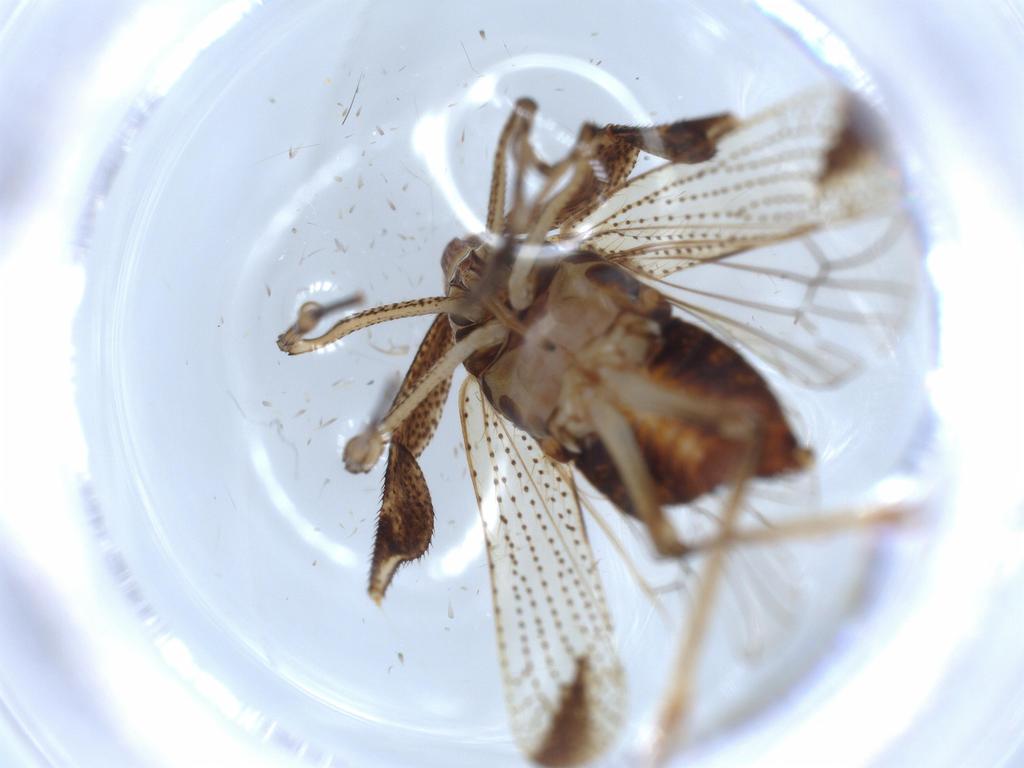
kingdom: Animalia
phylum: Arthropoda
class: Insecta
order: Hemiptera
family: Delphacidae
